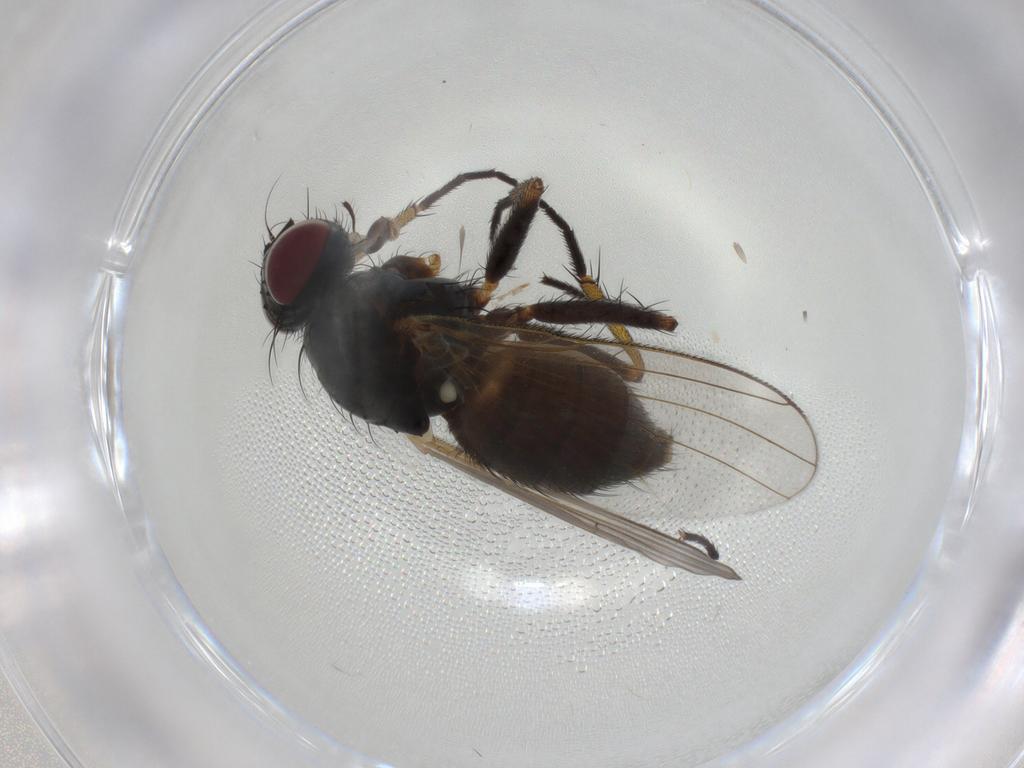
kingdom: Animalia
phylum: Arthropoda
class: Insecta
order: Diptera
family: Muscidae
